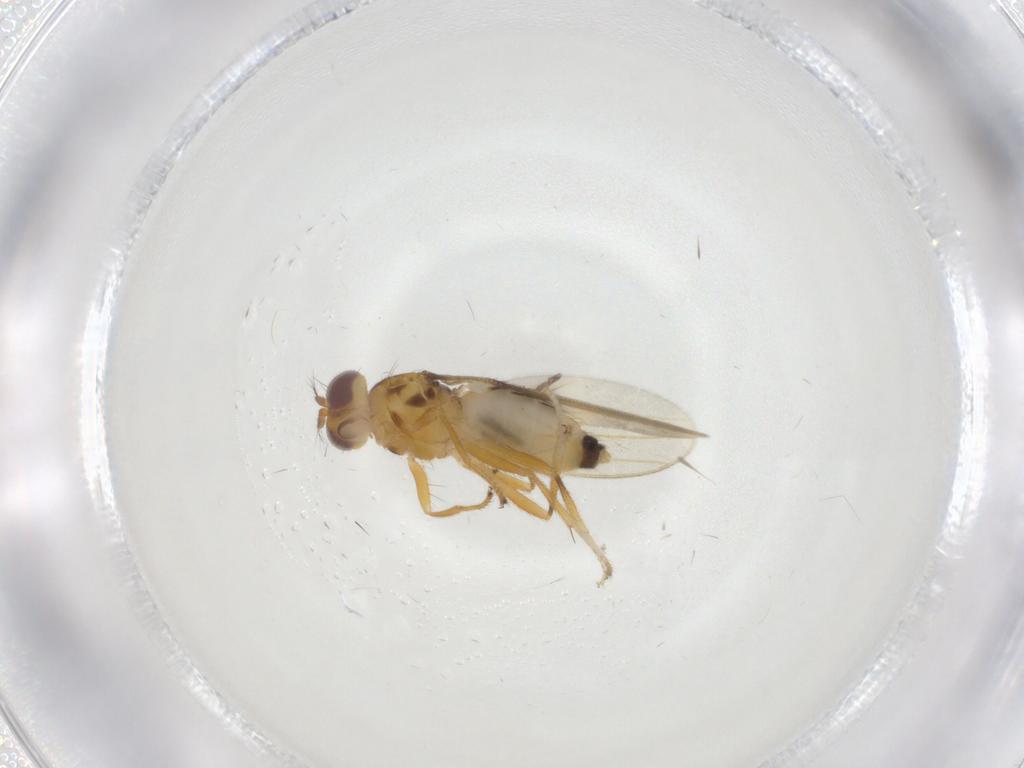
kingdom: Animalia
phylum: Arthropoda
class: Insecta
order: Diptera
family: Periscelididae
